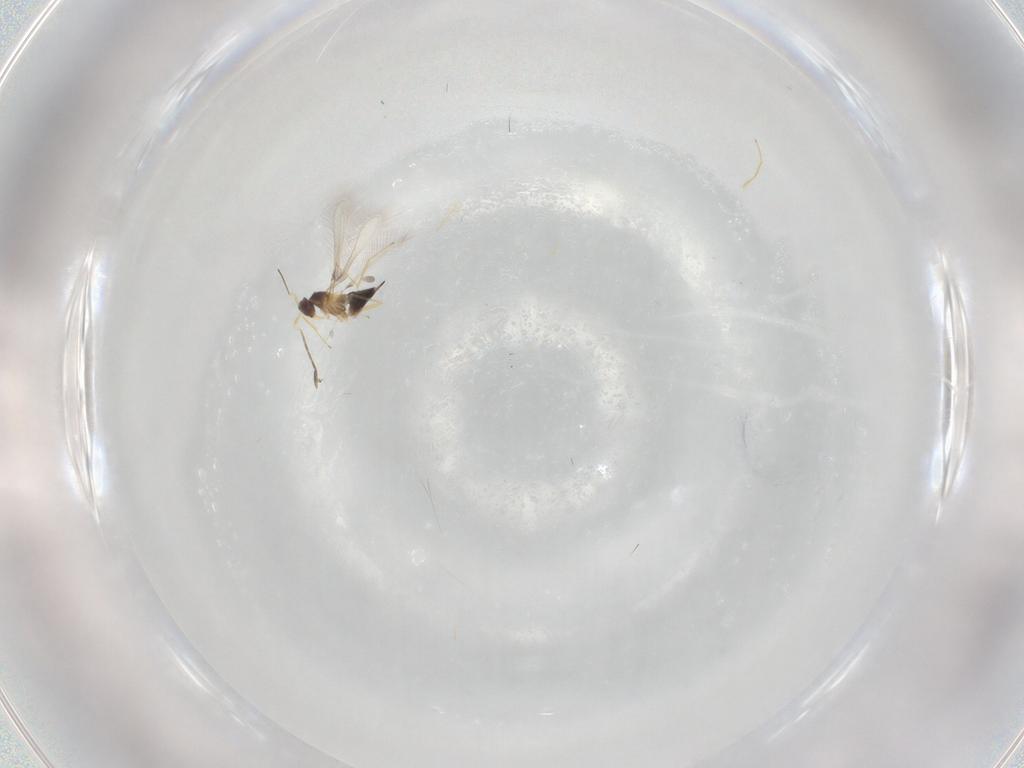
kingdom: Animalia
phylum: Arthropoda
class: Insecta
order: Hymenoptera
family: Mymaridae
